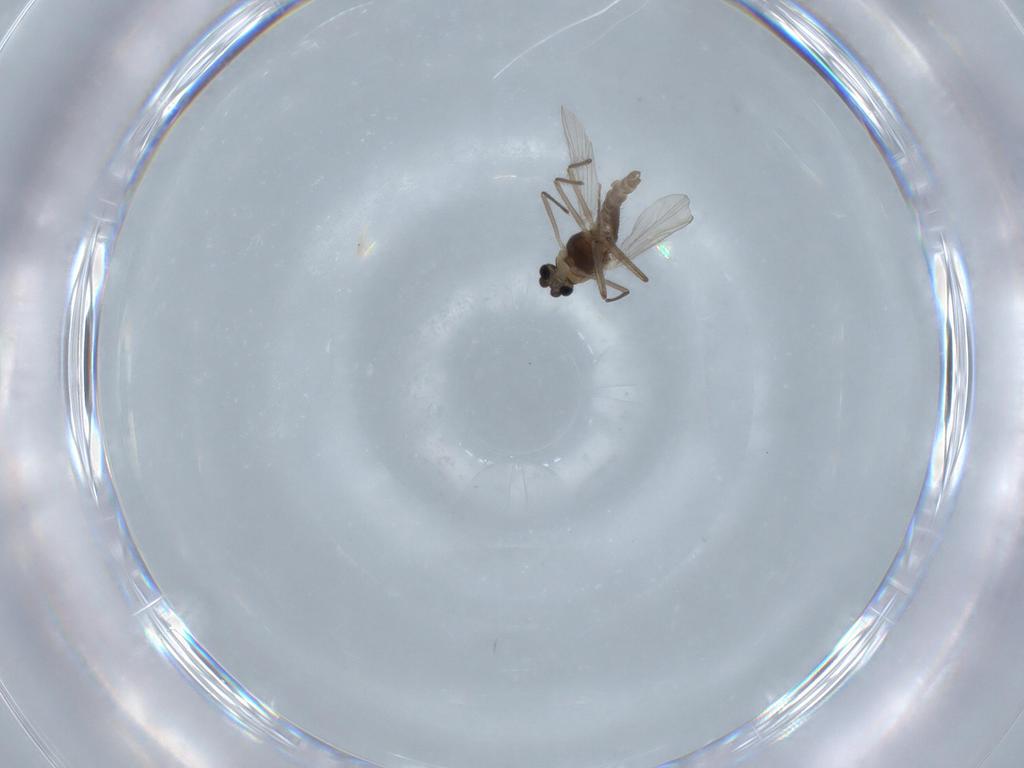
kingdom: Animalia
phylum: Arthropoda
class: Insecta
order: Diptera
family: Chironomidae
